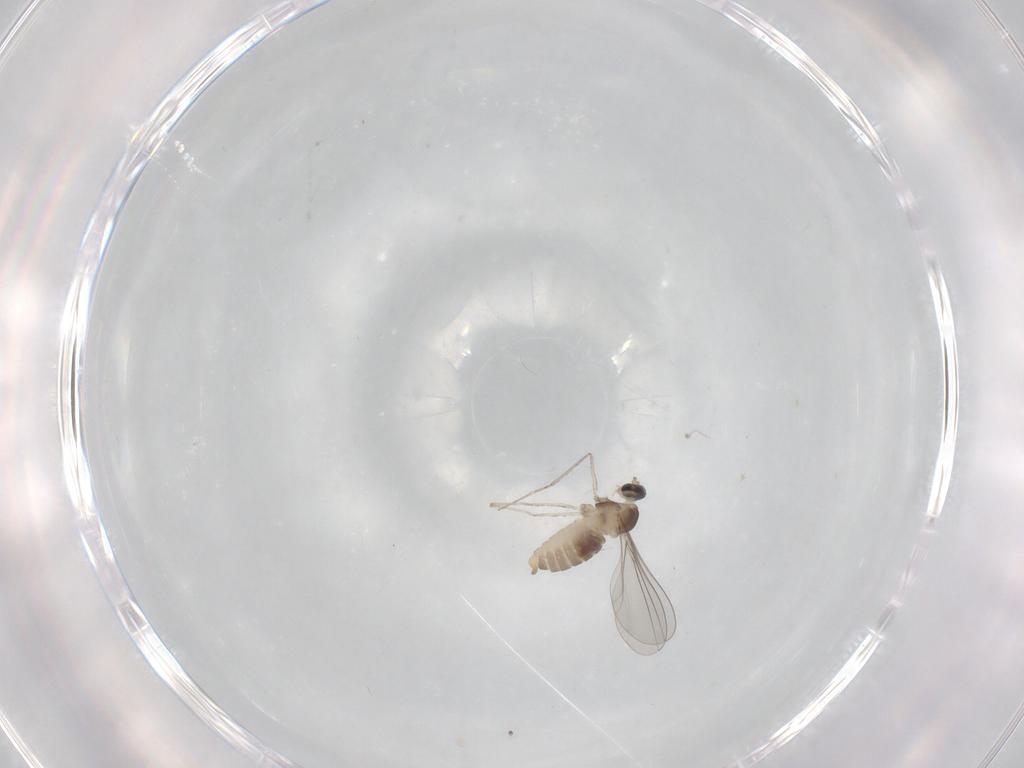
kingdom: Animalia
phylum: Arthropoda
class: Insecta
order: Diptera
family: Cecidomyiidae
